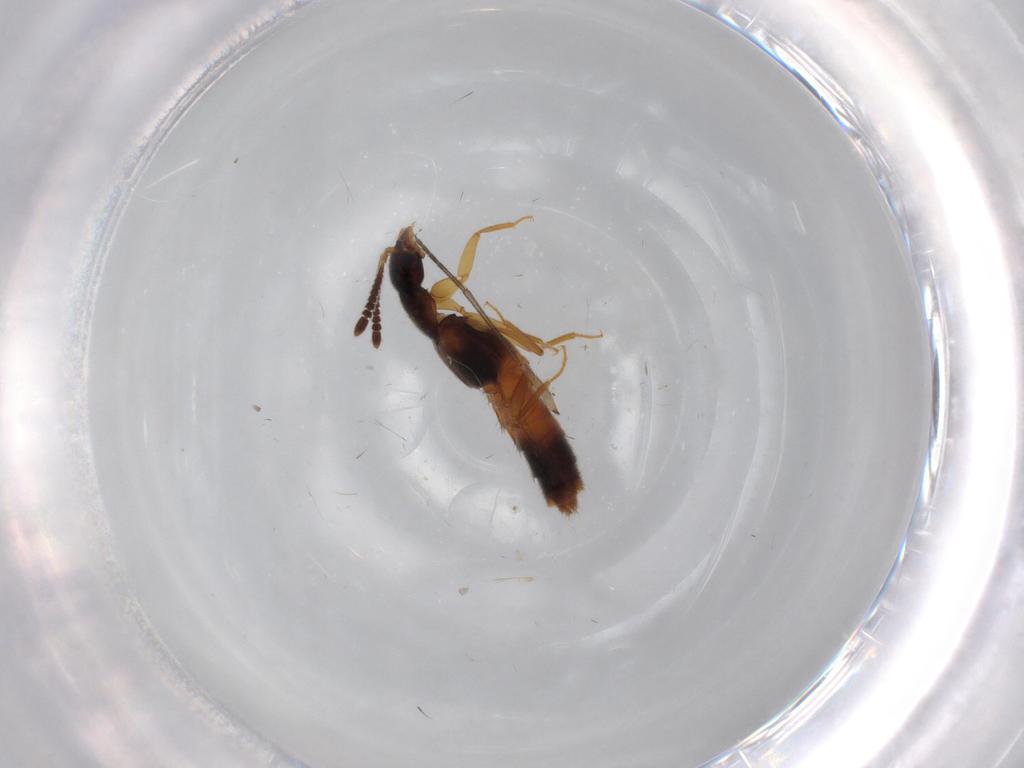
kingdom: Animalia
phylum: Arthropoda
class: Insecta
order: Coleoptera
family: Staphylinidae
